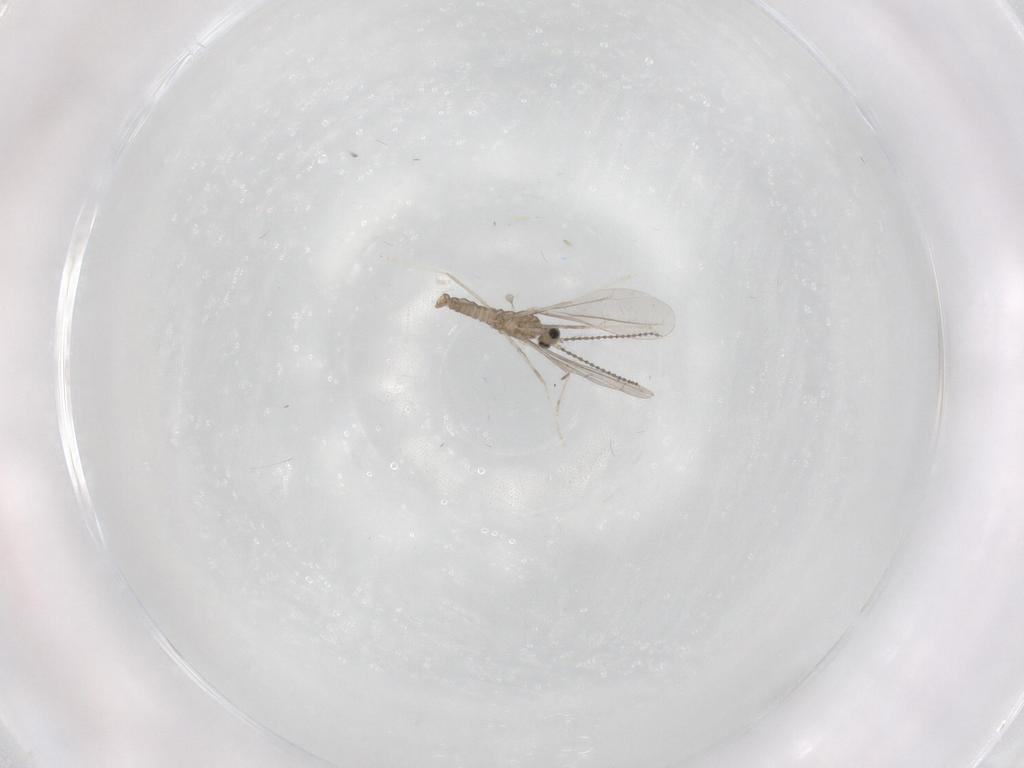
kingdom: Animalia
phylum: Arthropoda
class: Insecta
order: Diptera
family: Cecidomyiidae
